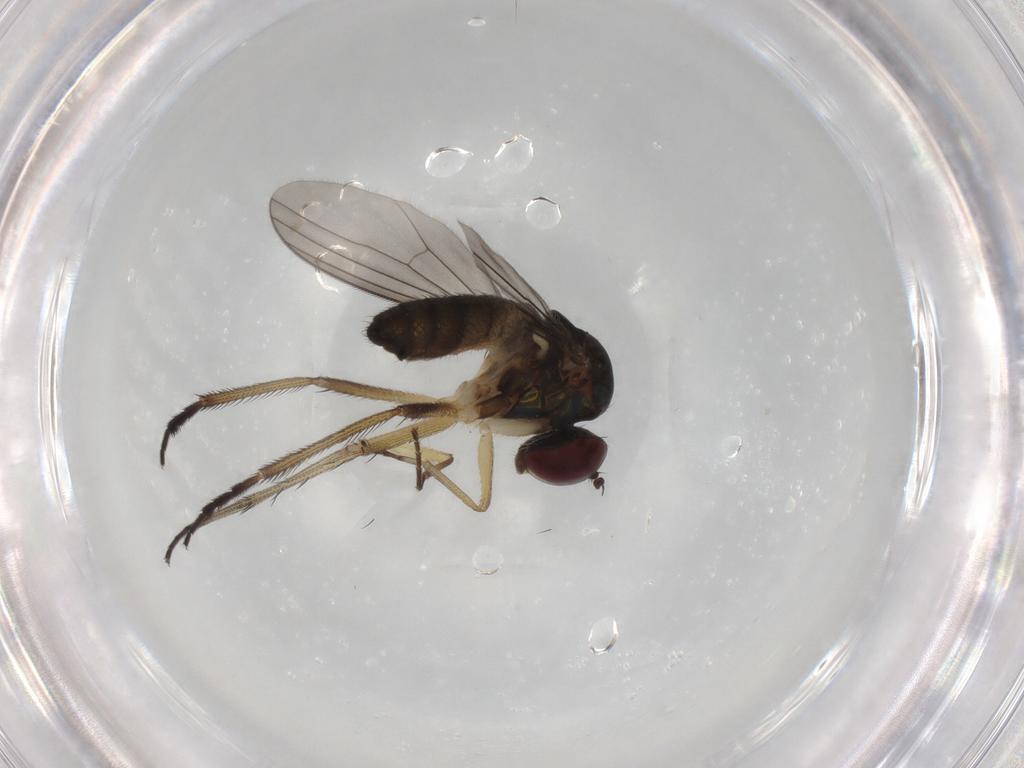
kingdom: Animalia
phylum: Arthropoda
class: Insecta
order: Diptera
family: Dolichopodidae
